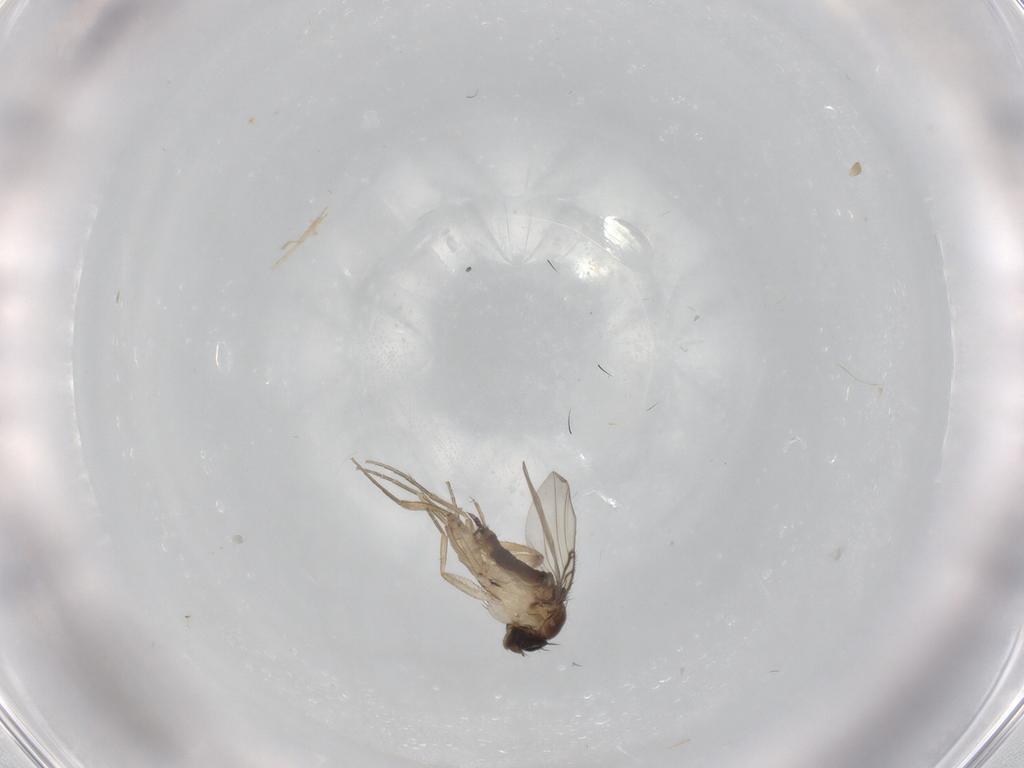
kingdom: Animalia
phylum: Arthropoda
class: Insecta
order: Diptera
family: Phoridae
